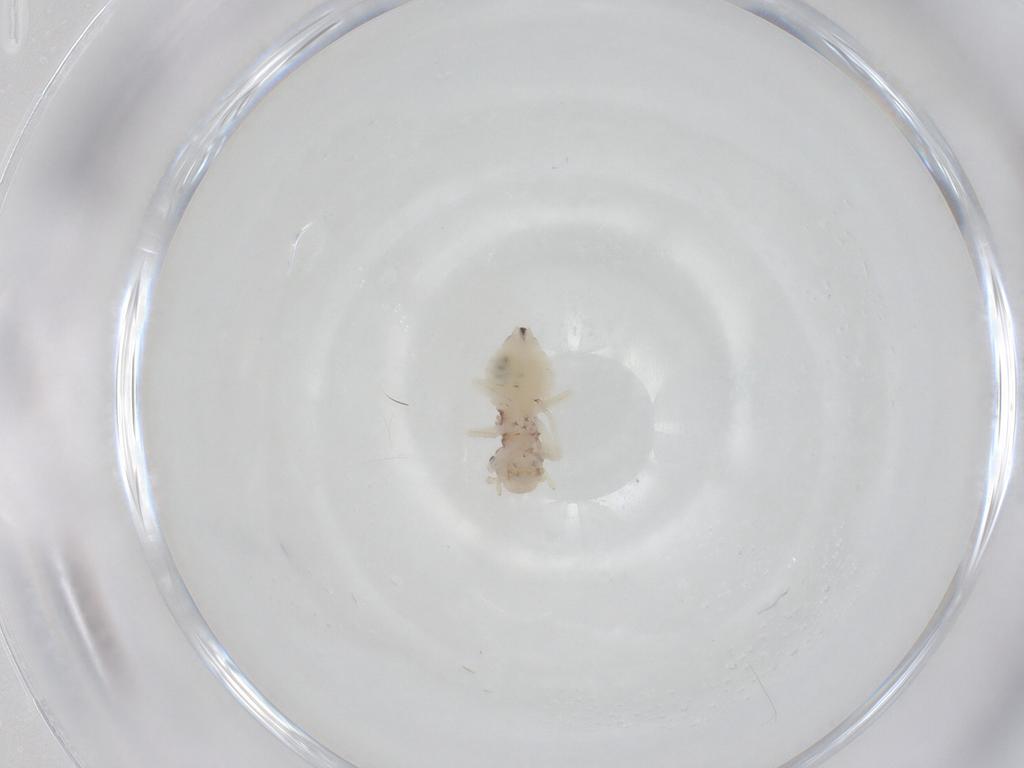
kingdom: Animalia
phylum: Arthropoda
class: Insecta
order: Psocodea
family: Amphipsocidae
